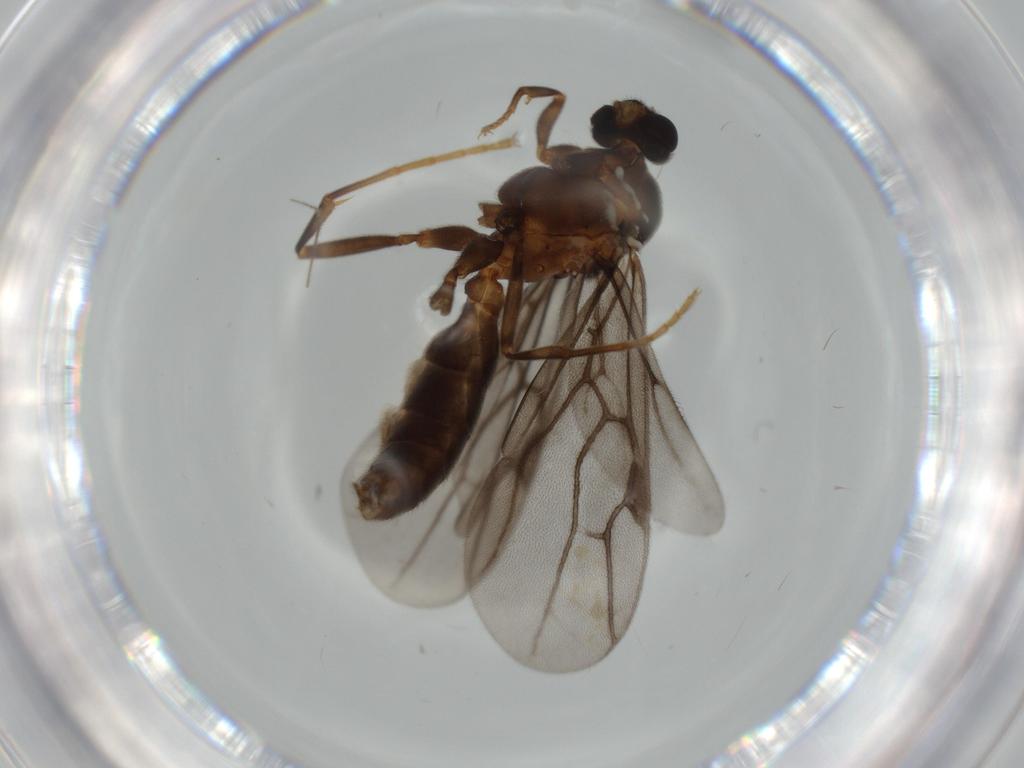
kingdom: Animalia
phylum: Arthropoda
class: Insecta
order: Hymenoptera
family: Formicidae
